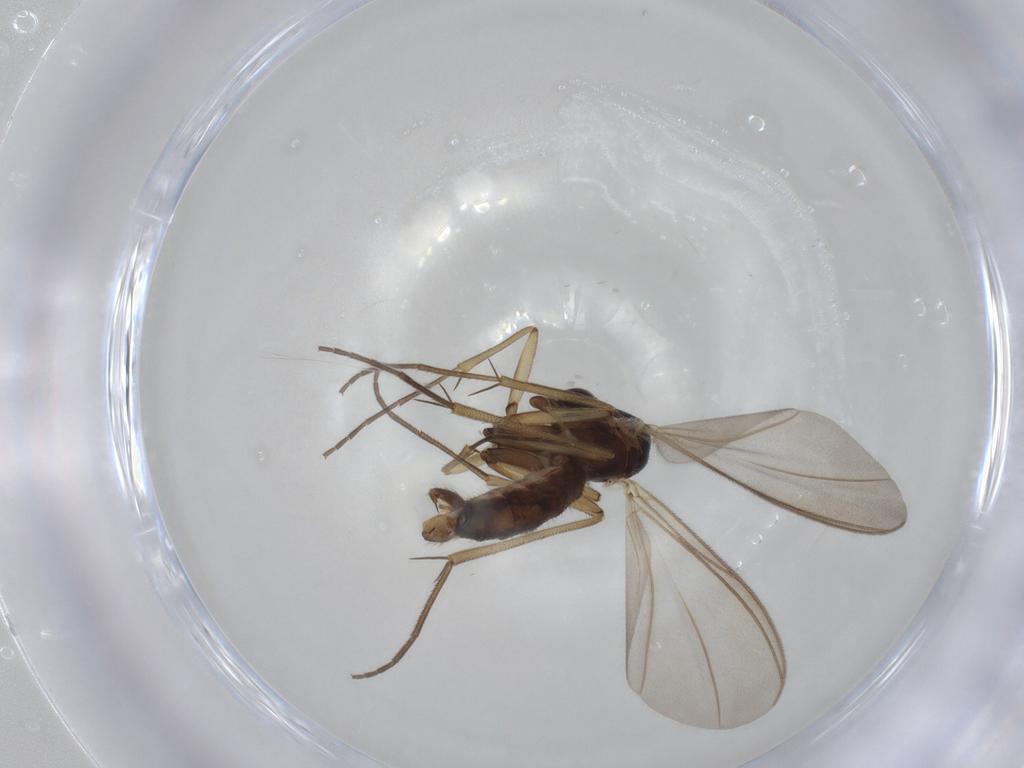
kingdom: Animalia
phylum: Arthropoda
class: Insecta
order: Diptera
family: Mycetophilidae
